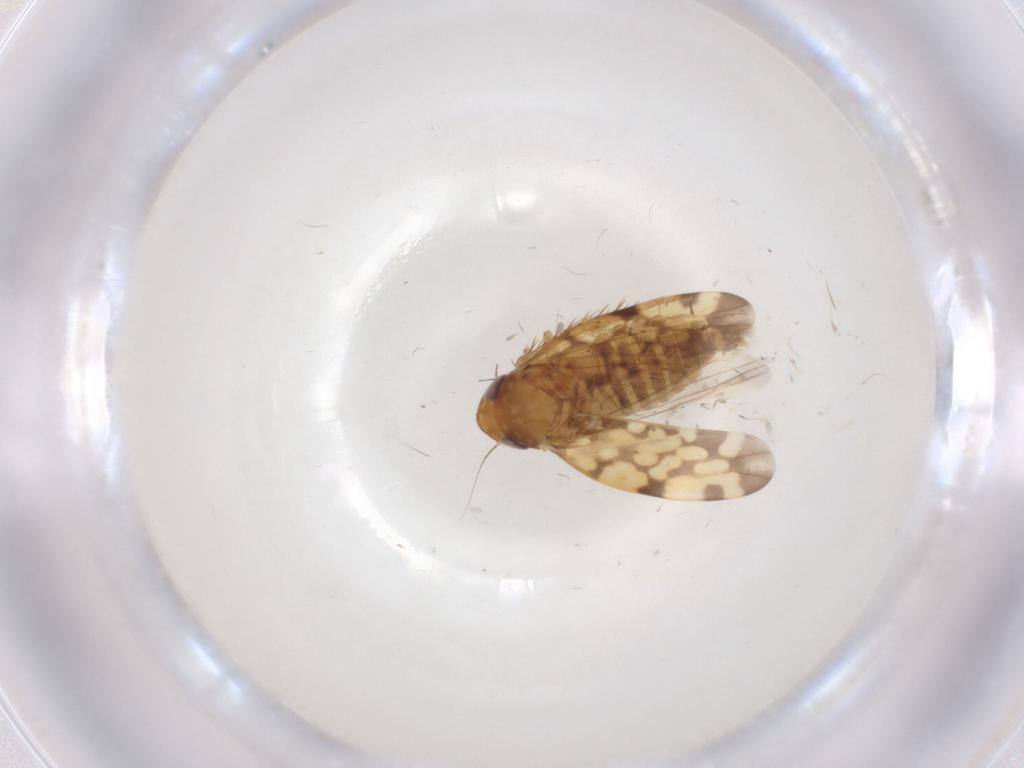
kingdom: Animalia
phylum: Arthropoda
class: Insecta
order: Hemiptera
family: Cicadellidae
